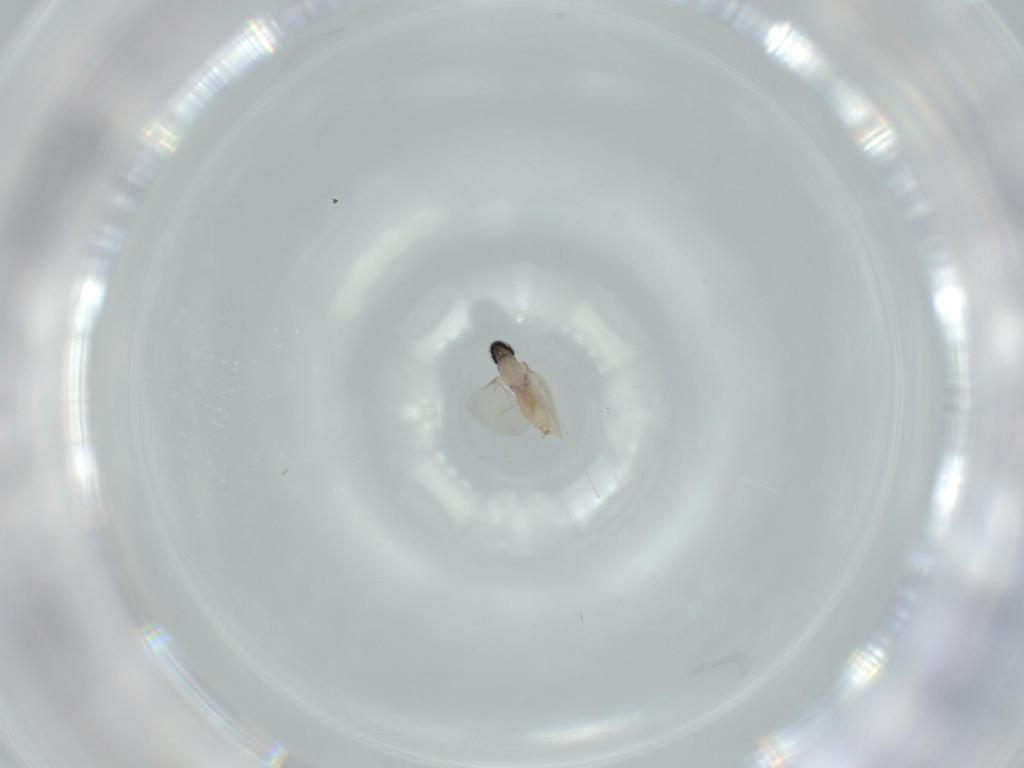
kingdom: Animalia
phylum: Arthropoda
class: Insecta
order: Diptera
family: Cecidomyiidae
